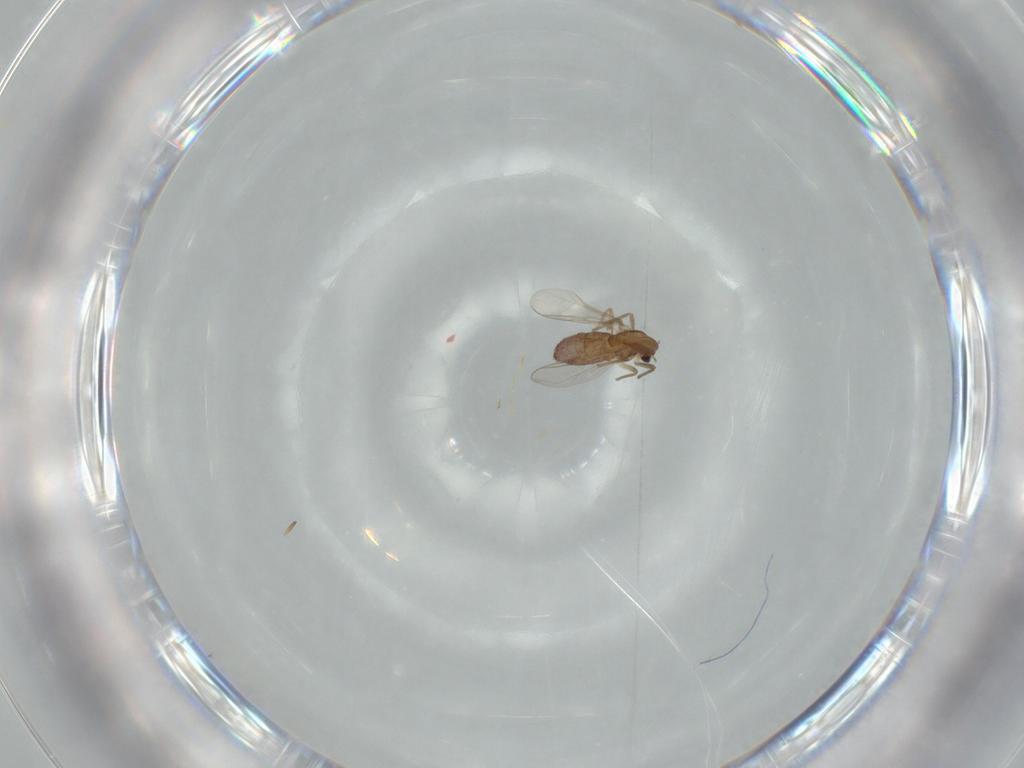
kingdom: Animalia
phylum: Arthropoda
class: Insecta
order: Diptera
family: Chironomidae
